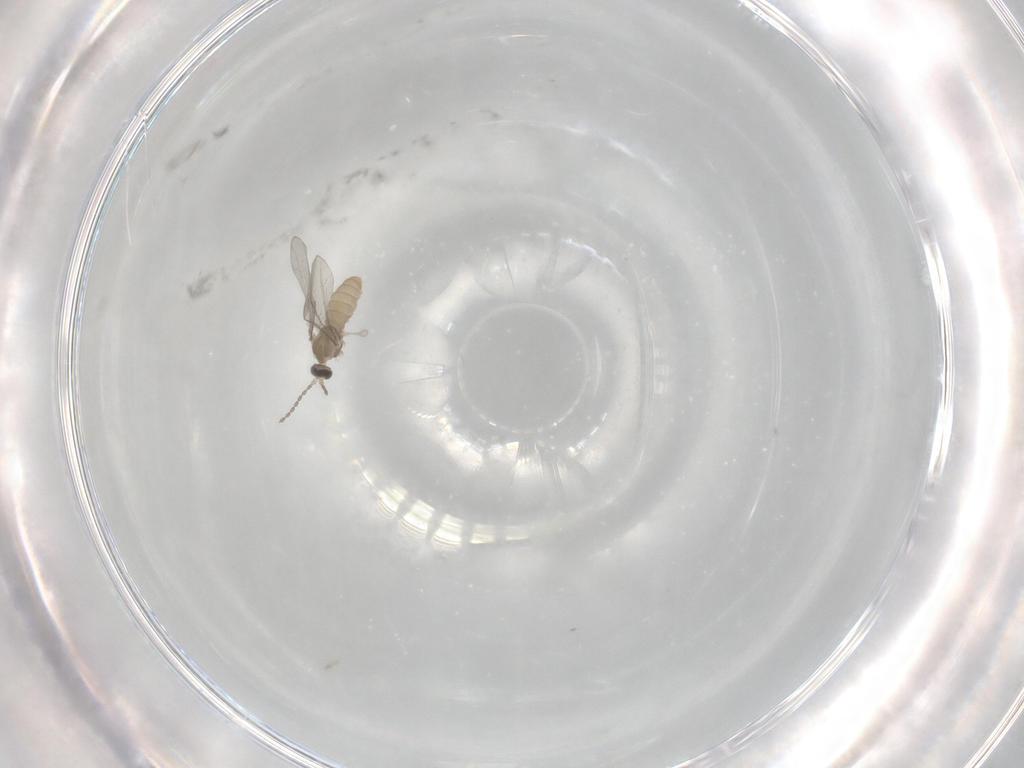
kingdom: Animalia
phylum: Arthropoda
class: Insecta
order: Diptera
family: Cecidomyiidae
